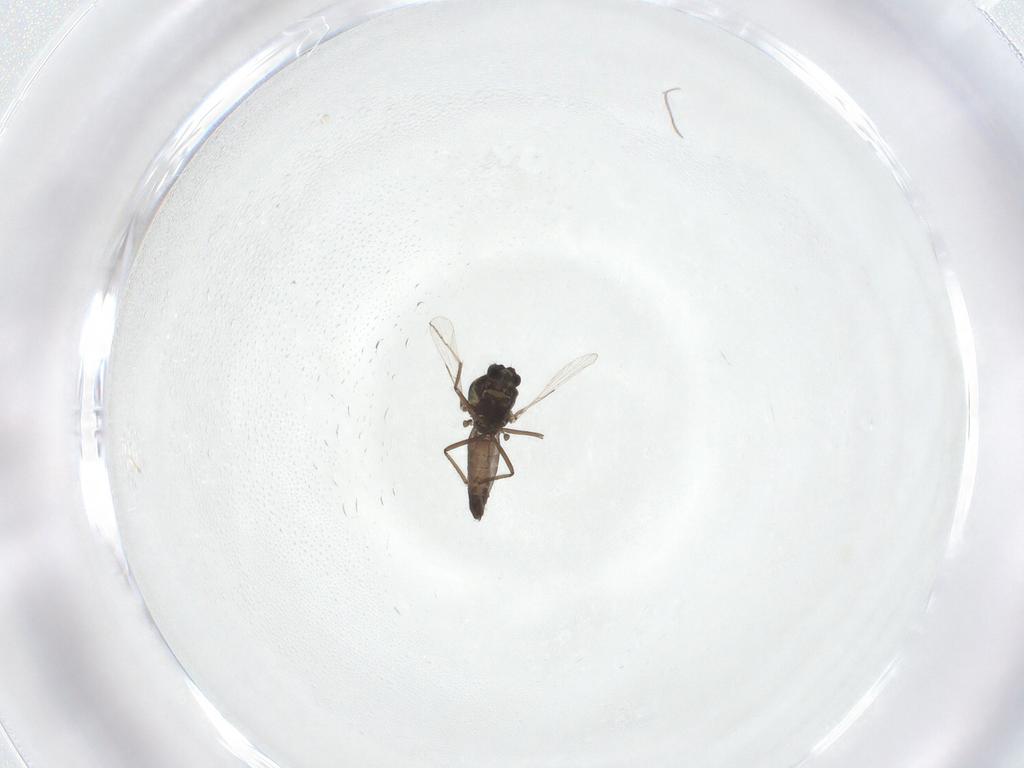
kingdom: Animalia
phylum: Arthropoda
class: Insecta
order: Diptera
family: Ceratopogonidae
